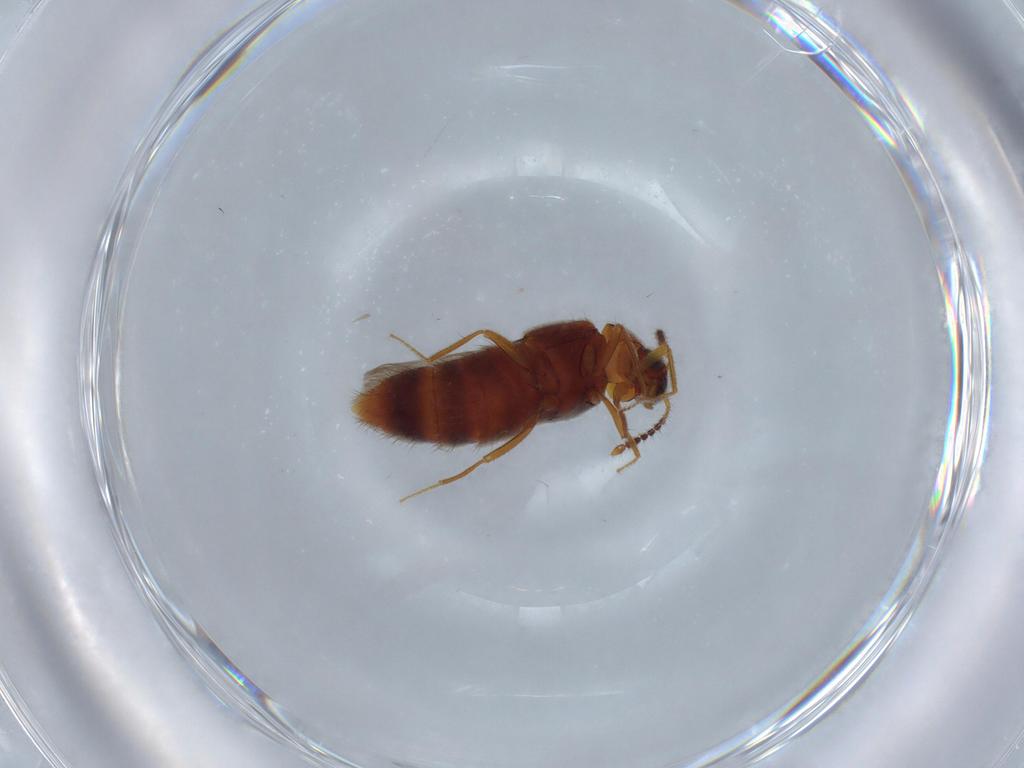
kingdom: Animalia
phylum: Arthropoda
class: Insecta
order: Coleoptera
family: Staphylinidae
